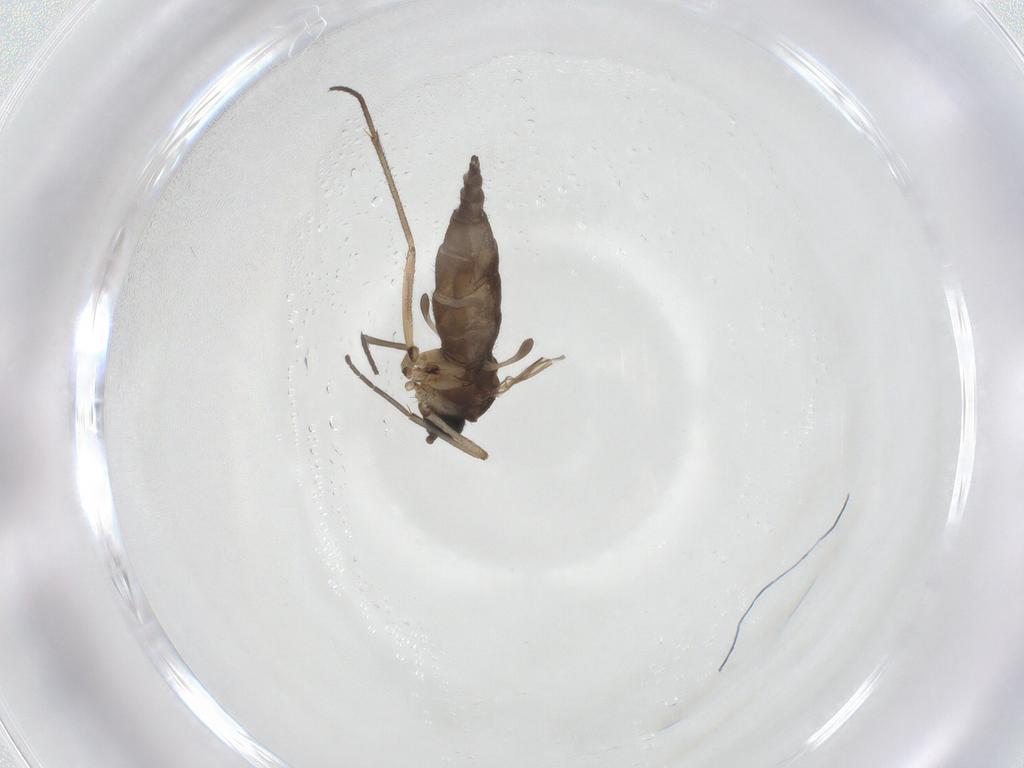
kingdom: Animalia
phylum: Arthropoda
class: Insecta
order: Diptera
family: Sciaridae
